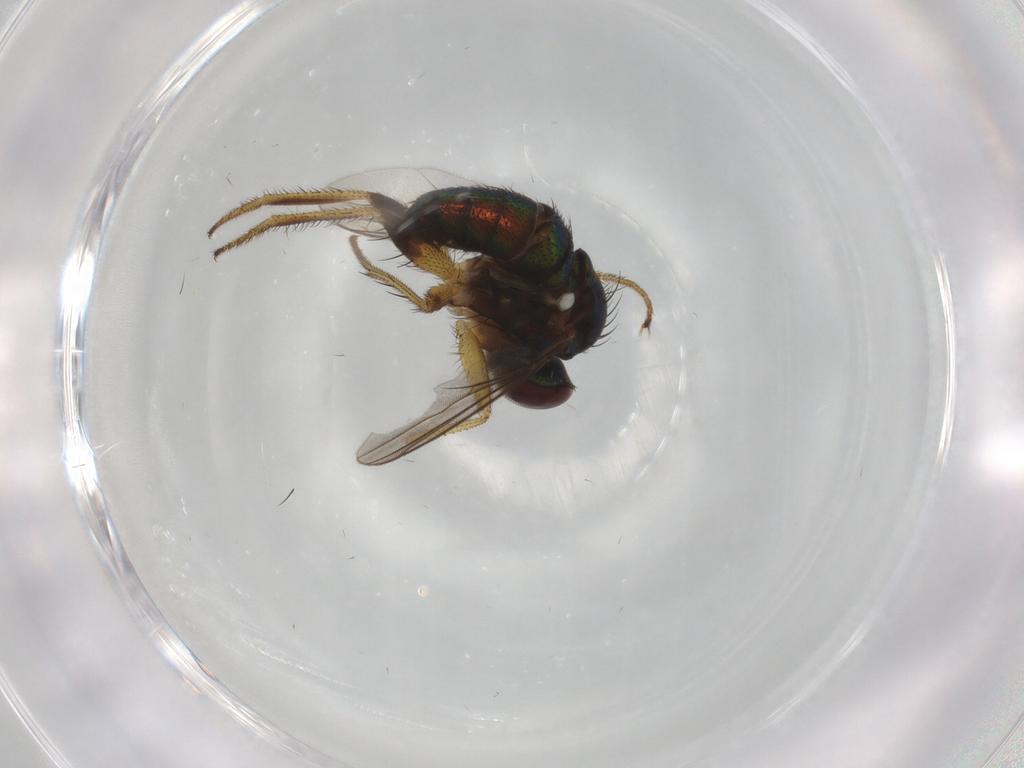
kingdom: Animalia
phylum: Arthropoda
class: Insecta
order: Diptera
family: Dolichopodidae
